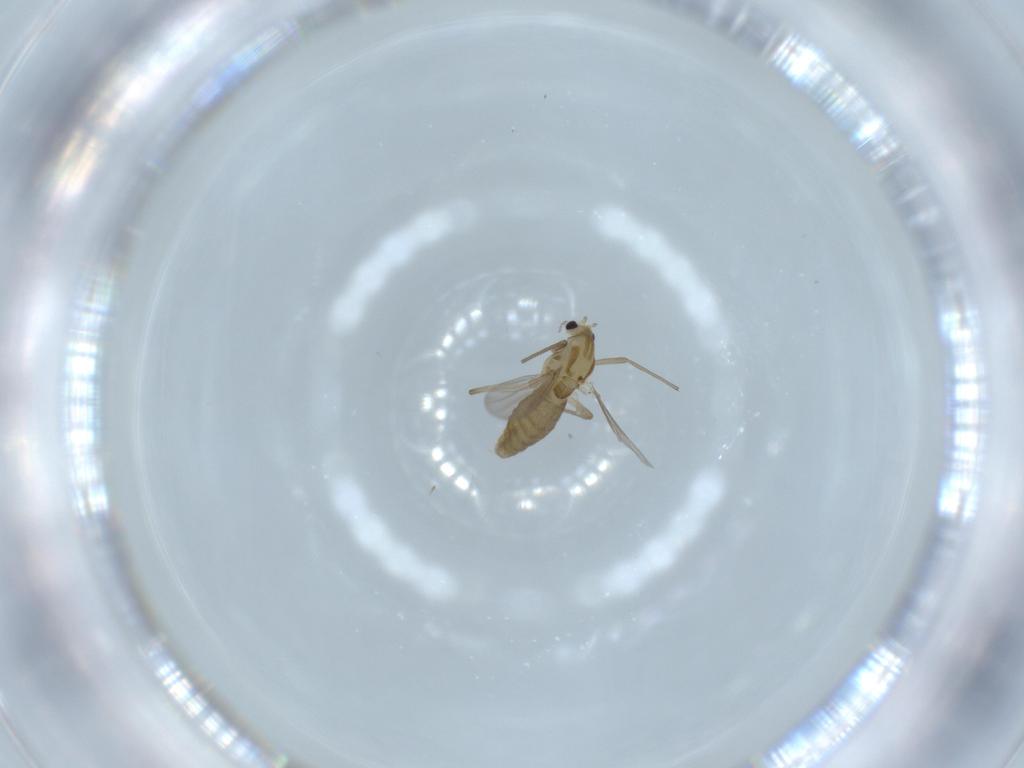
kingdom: Animalia
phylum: Arthropoda
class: Insecta
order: Diptera
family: Chironomidae
